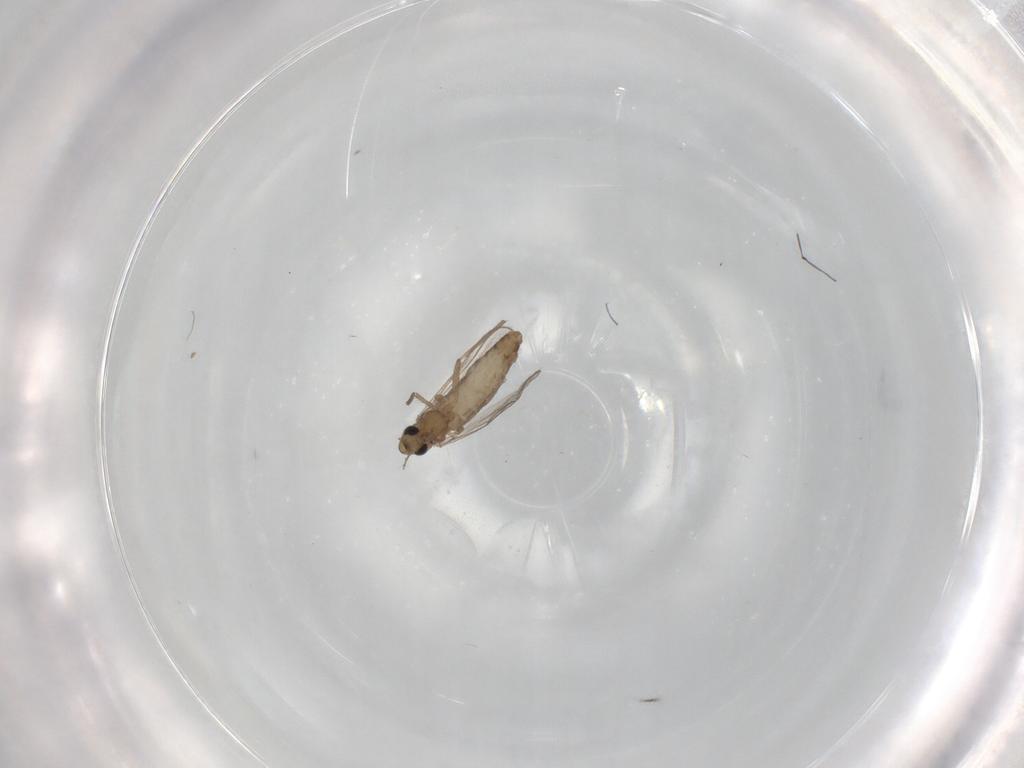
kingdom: Animalia
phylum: Arthropoda
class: Insecta
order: Diptera
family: Chironomidae
